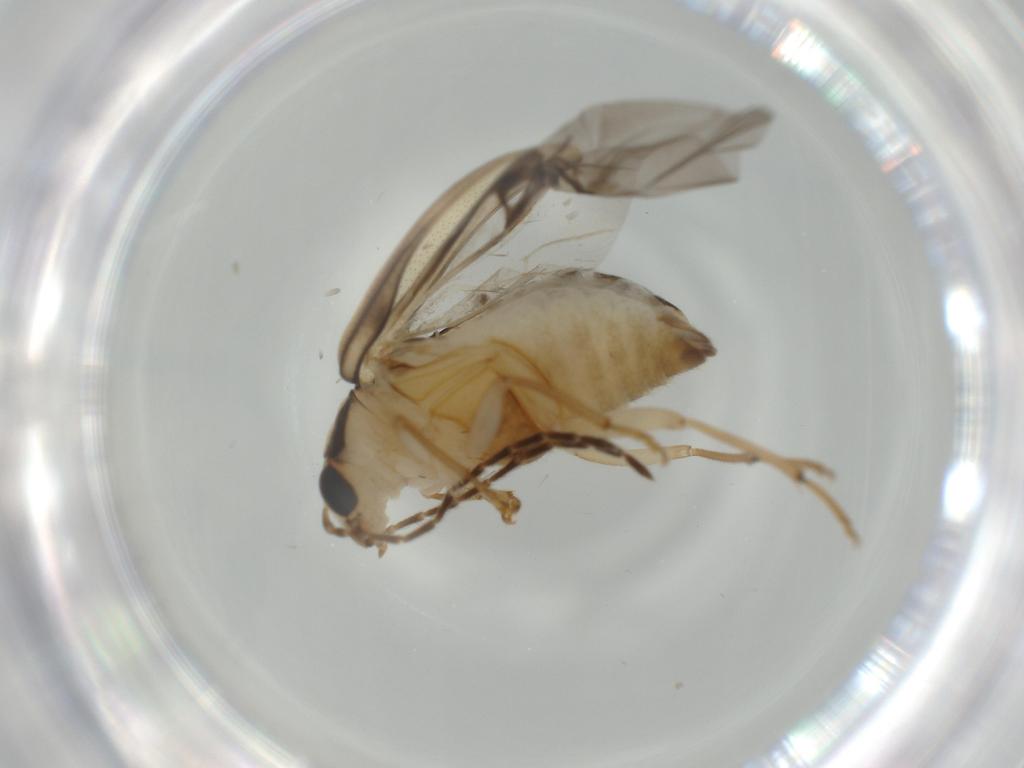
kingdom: Animalia
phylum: Arthropoda
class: Insecta
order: Coleoptera
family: Chrysomelidae
